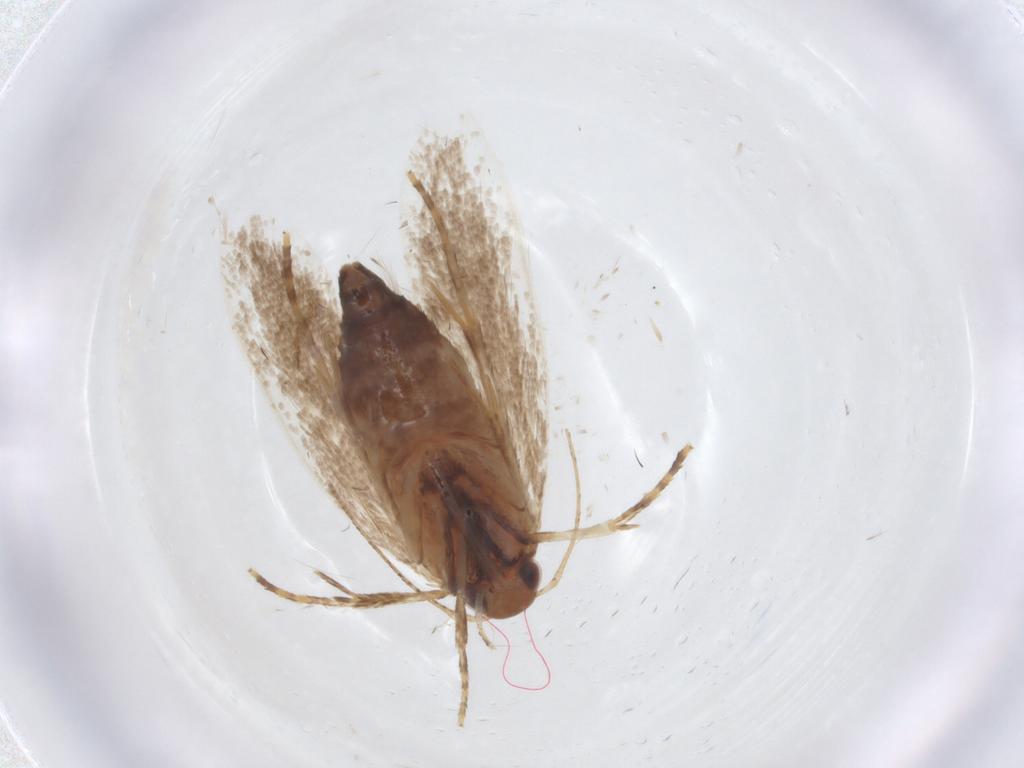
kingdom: Animalia
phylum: Arthropoda
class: Insecta
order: Lepidoptera
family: Oecophoridae
